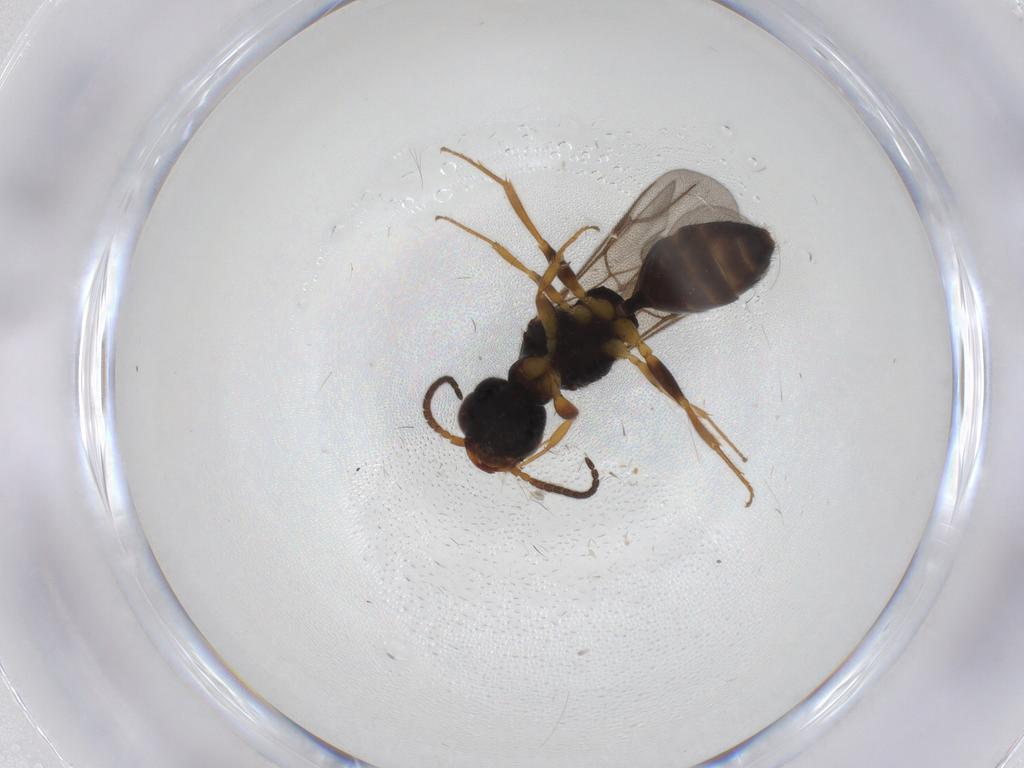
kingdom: Animalia
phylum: Arthropoda
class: Insecta
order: Hymenoptera
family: Bethylidae
